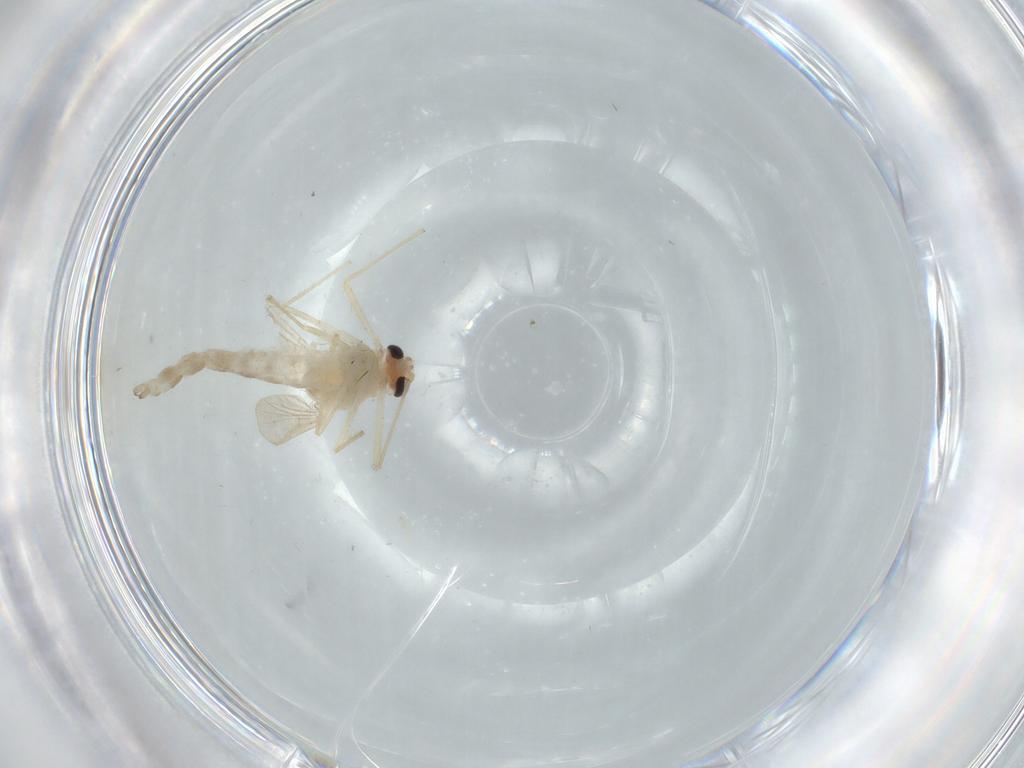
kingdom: Animalia
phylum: Arthropoda
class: Insecta
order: Diptera
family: Chironomidae
